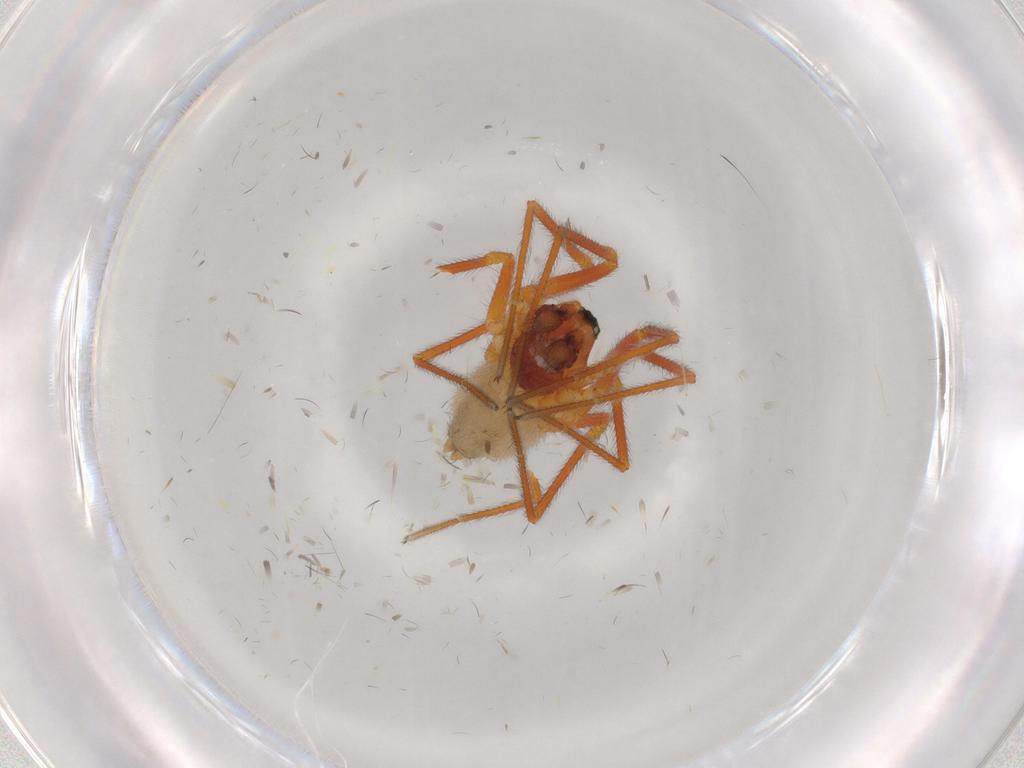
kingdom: Animalia
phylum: Arthropoda
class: Arachnida
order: Araneae
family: Linyphiidae
